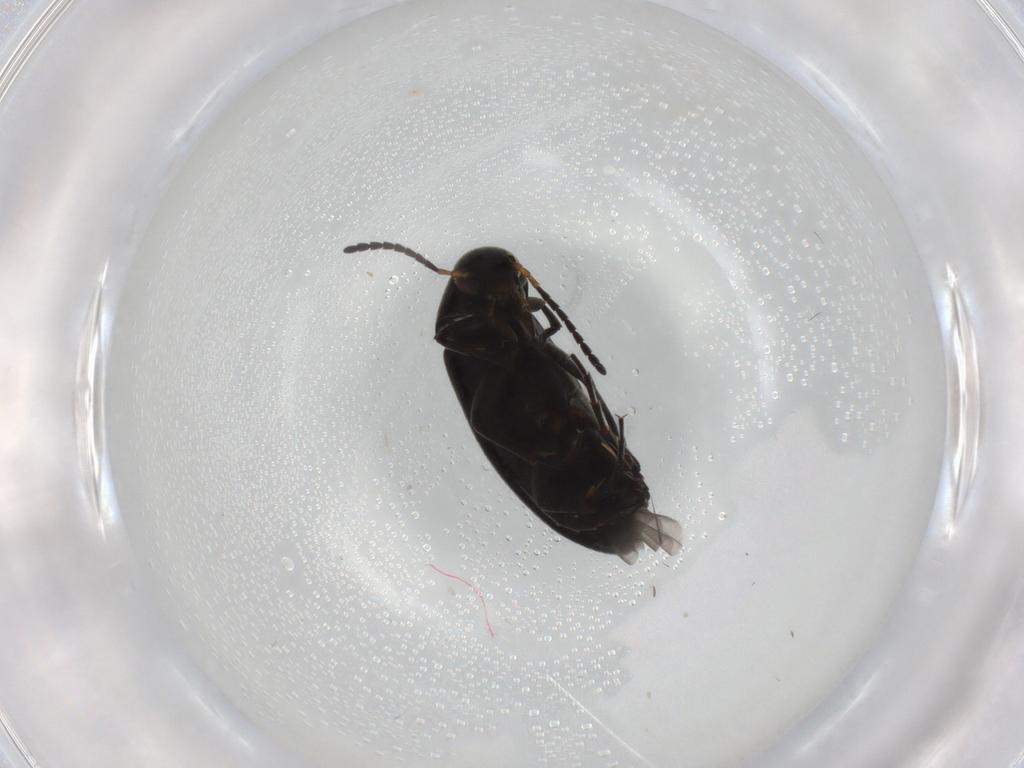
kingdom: Animalia
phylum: Arthropoda
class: Insecta
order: Coleoptera
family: Scraptiidae
